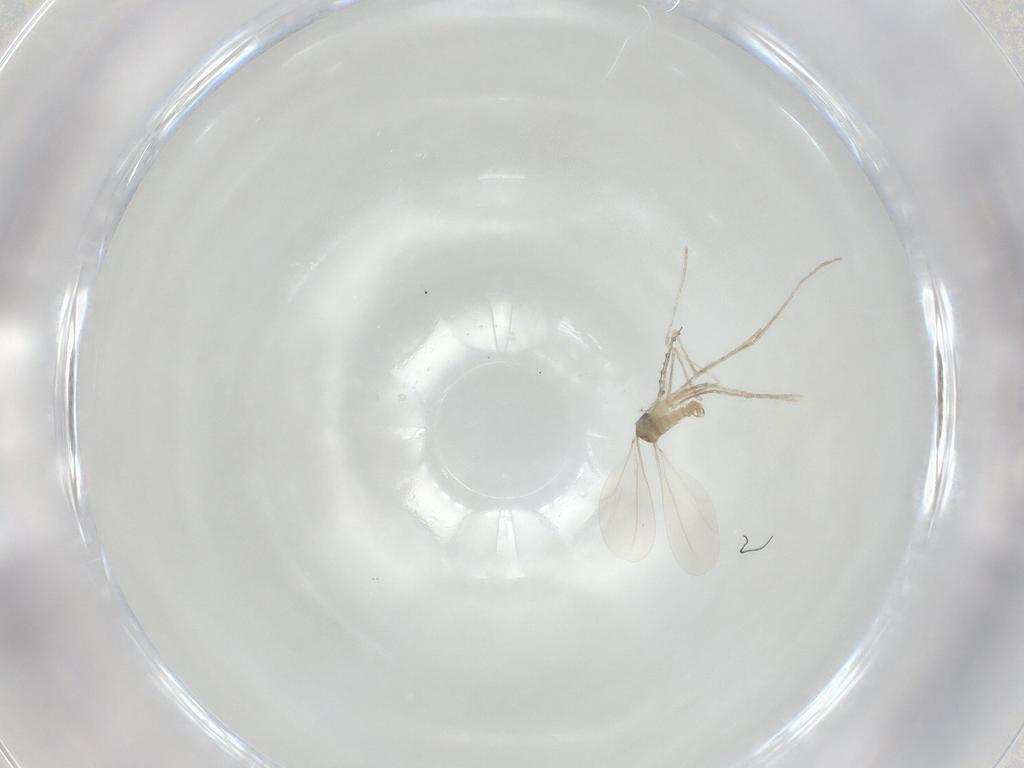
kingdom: Animalia
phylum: Arthropoda
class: Insecta
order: Diptera
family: Cecidomyiidae
